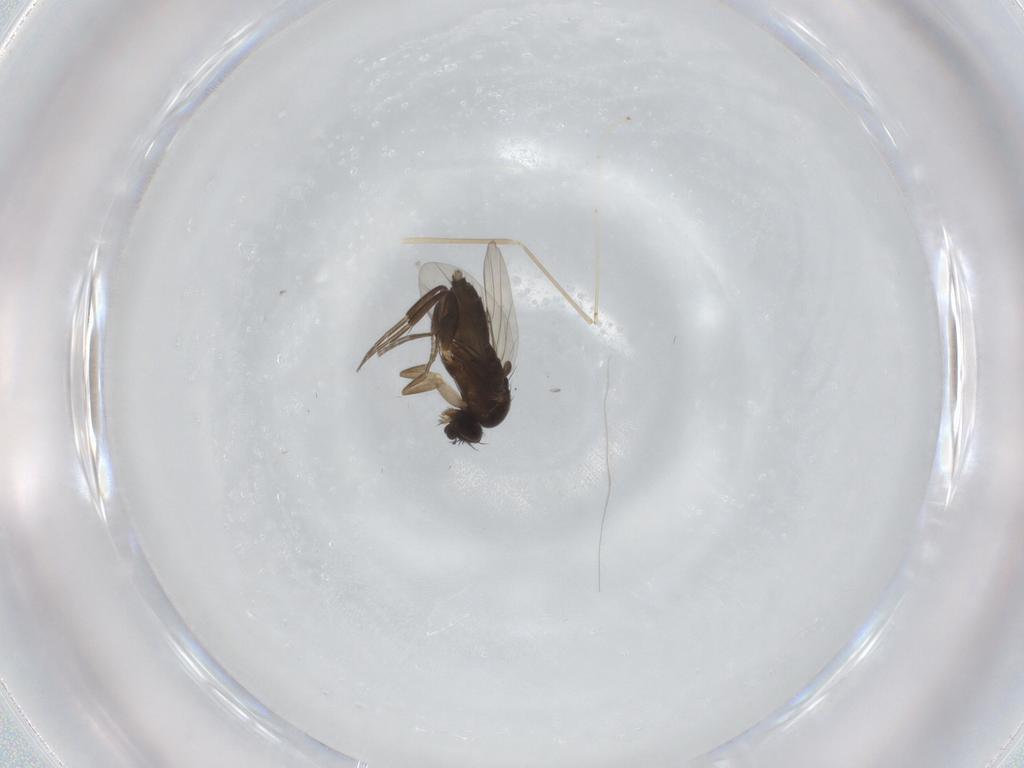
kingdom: Animalia
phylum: Arthropoda
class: Insecta
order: Diptera
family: Phoridae
